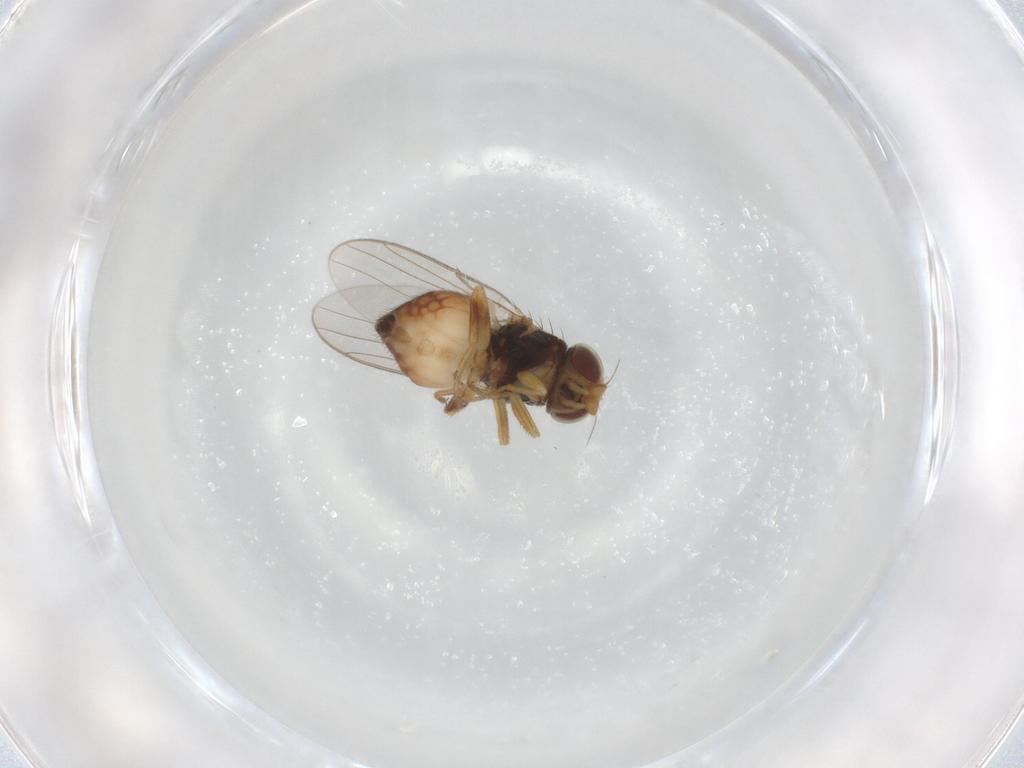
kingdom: Animalia
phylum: Arthropoda
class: Insecta
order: Diptera
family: Chloropidae
